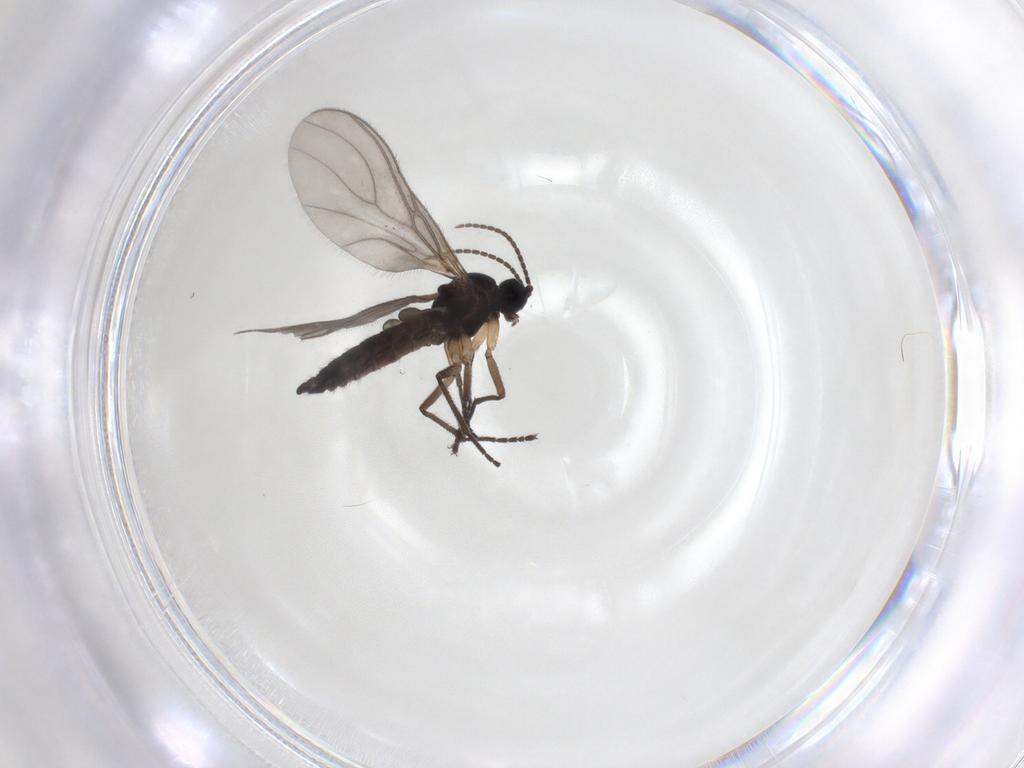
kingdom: Animalia
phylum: Arthropoda
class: Insecta
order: Diptera
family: Sciaridae
